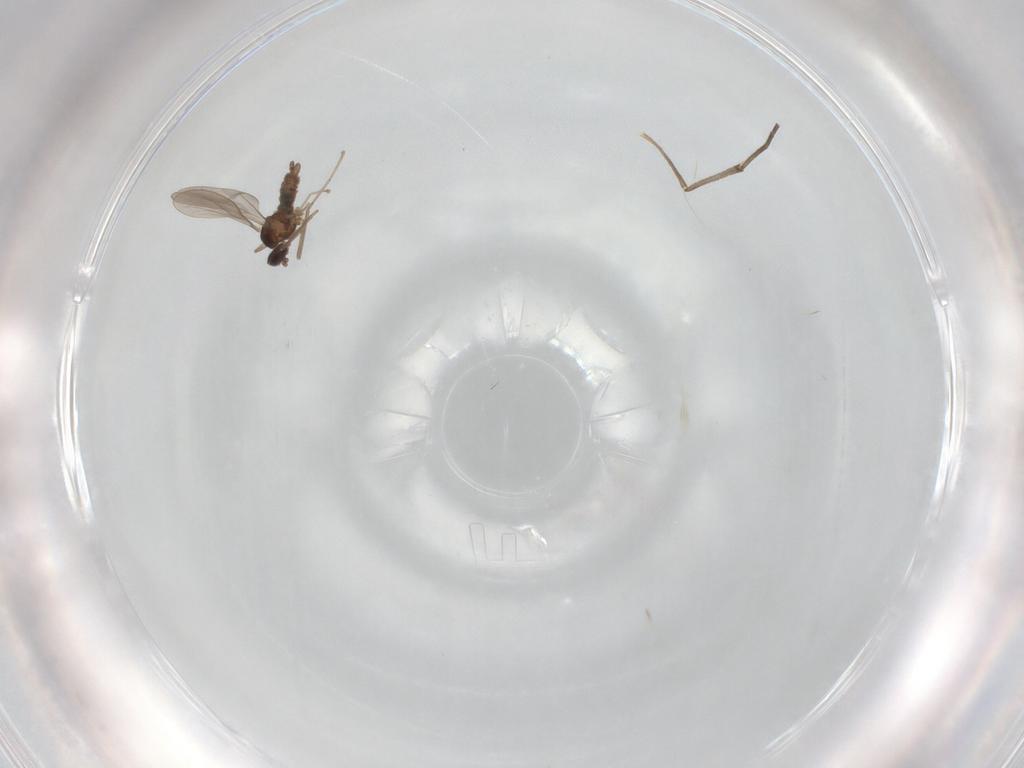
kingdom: Animalia
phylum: Arthropoda
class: Insecta
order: Diptera
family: Cecidomyiidae
